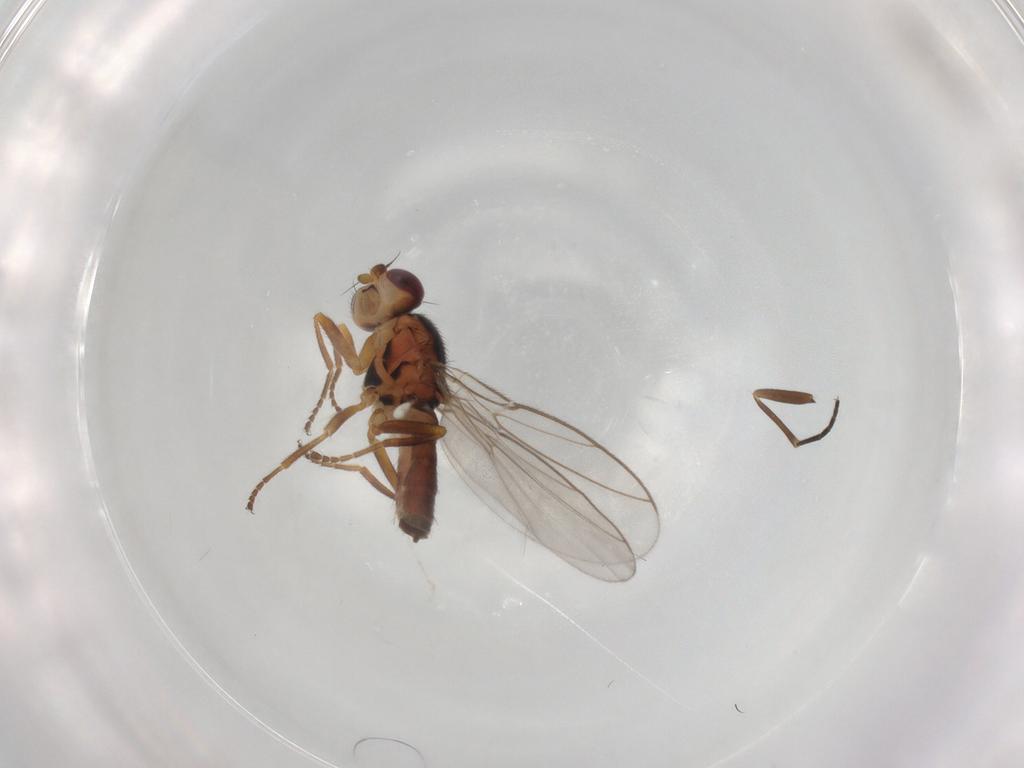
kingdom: Animalia
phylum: Arthropoda
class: Insecta
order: Diptera
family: Chloropidae
